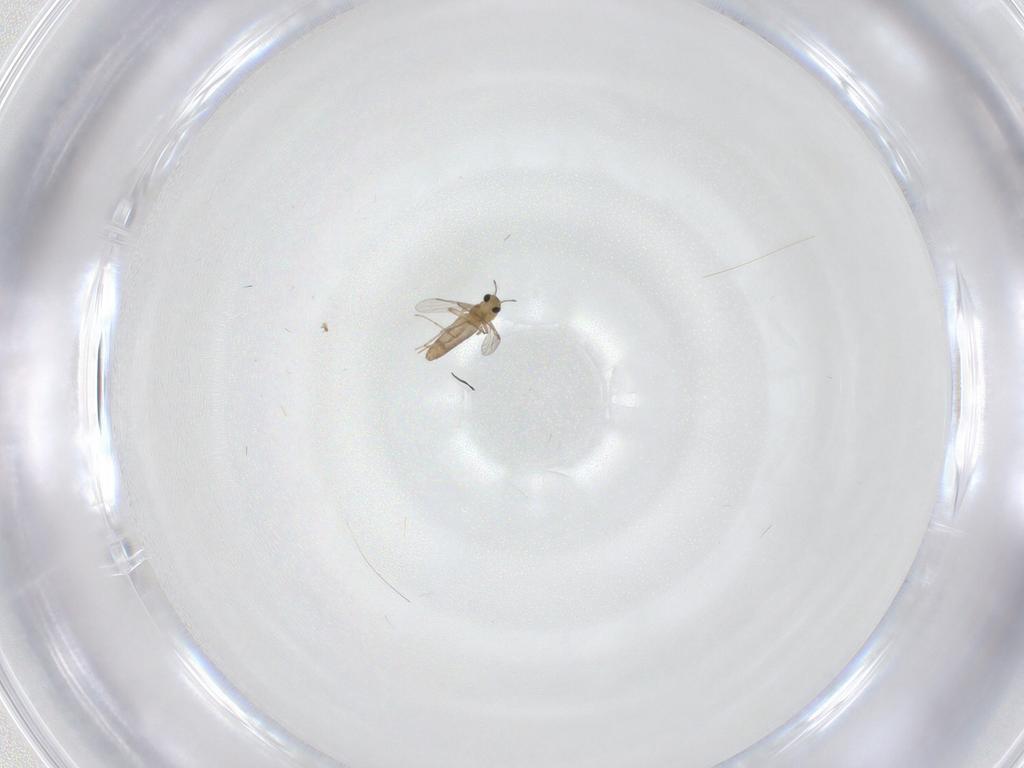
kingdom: Animalia
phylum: Arthropoda
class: Insecta
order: Diptera
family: Chironomidae
